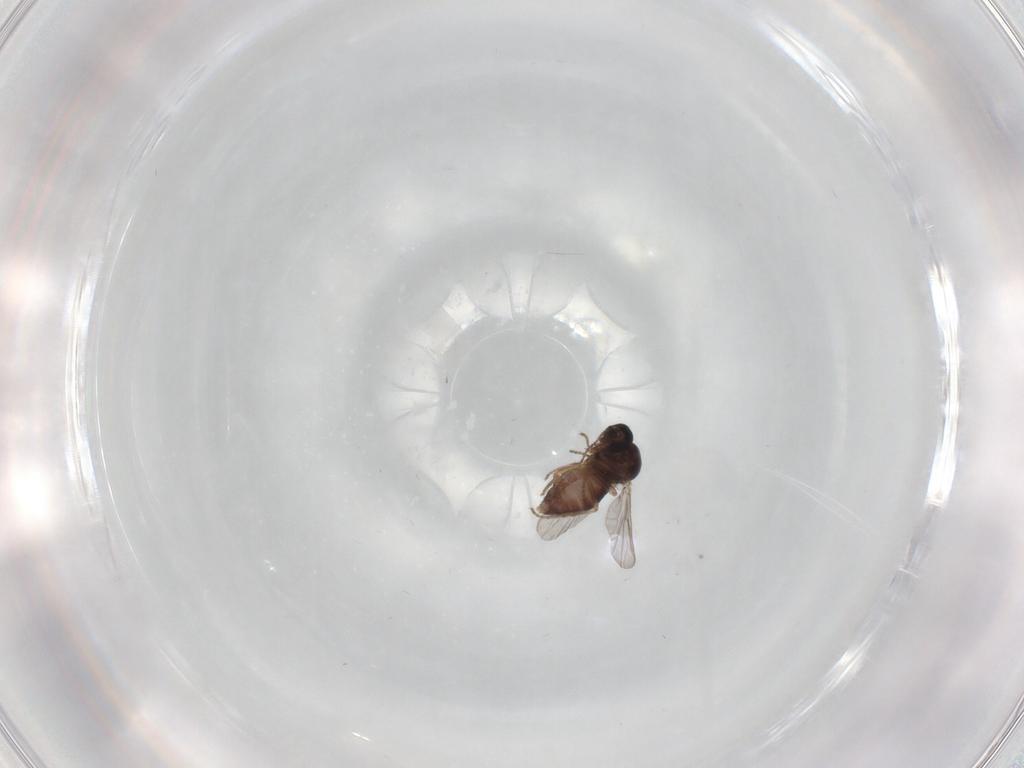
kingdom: Animalia
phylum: Arthropoda
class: Insecta
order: Diptera
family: Ceratopogonidae
